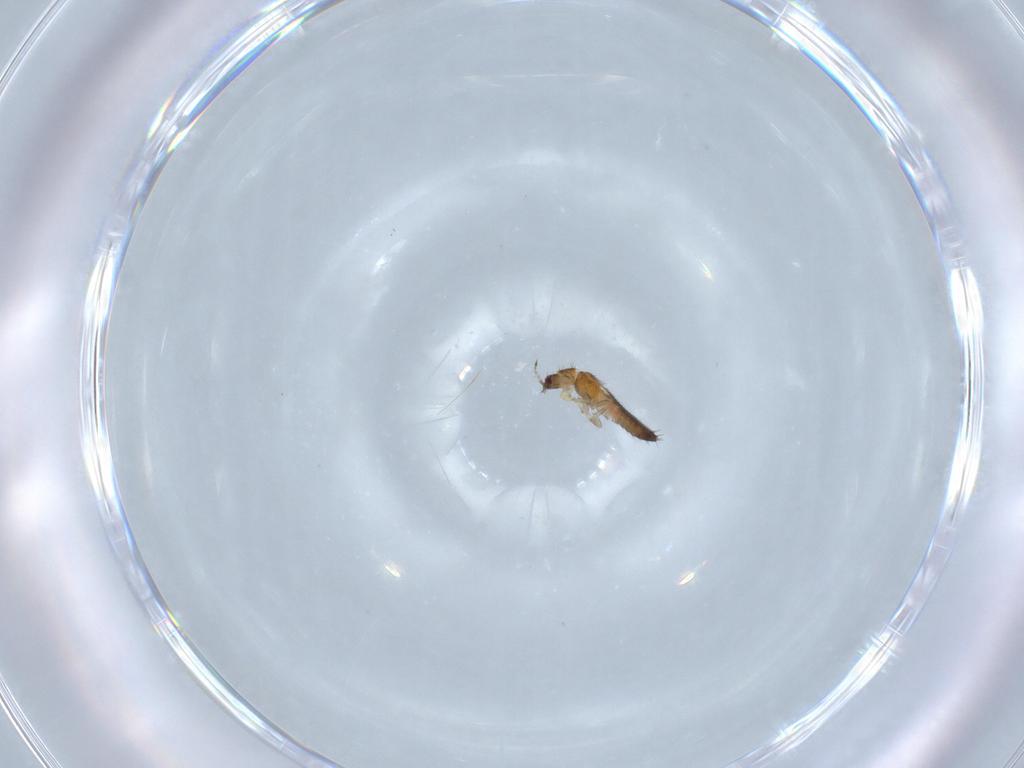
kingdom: Animalia
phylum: Arthropoda
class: Insecta
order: Thysanoptera
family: Thripidae
